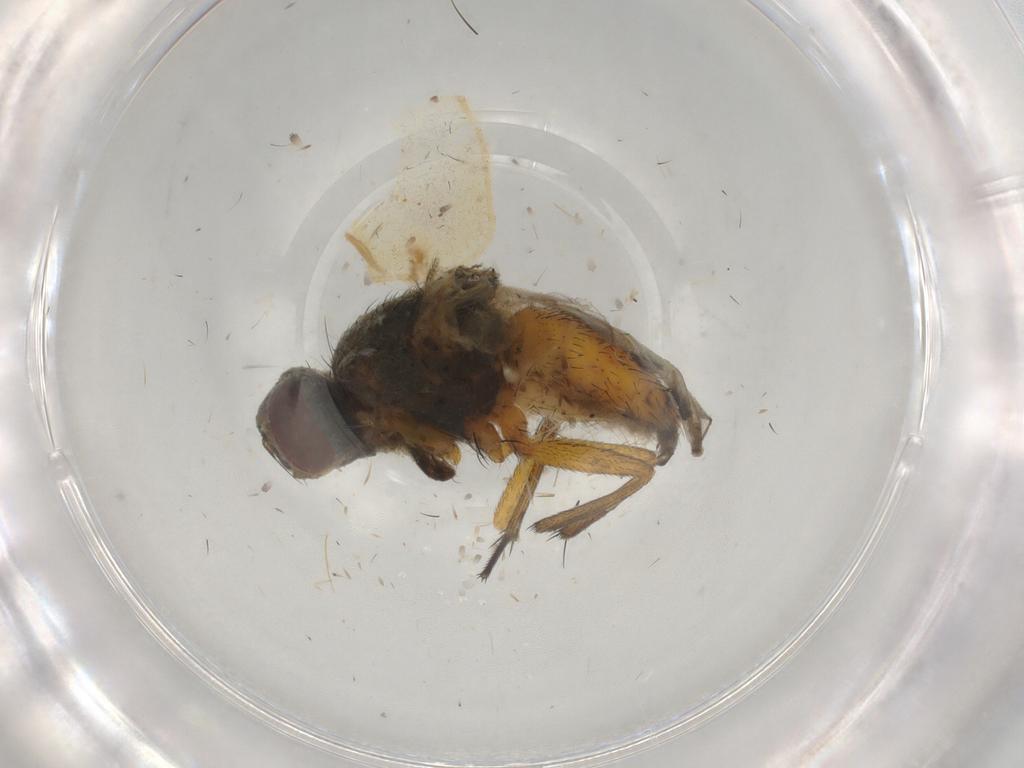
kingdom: Animalia
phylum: Arthropoda
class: Insecta
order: Diptera
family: Muscidae
